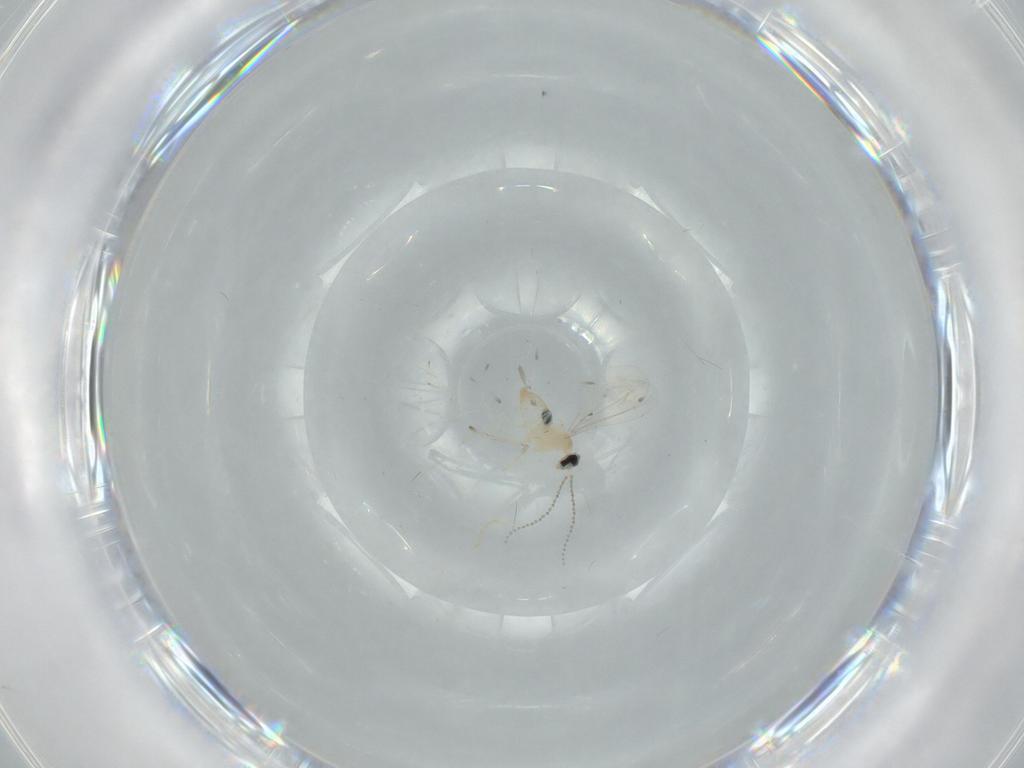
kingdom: Animalia
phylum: Arthropoda
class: Insecta
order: Diptera
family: Cecidomyiidae
